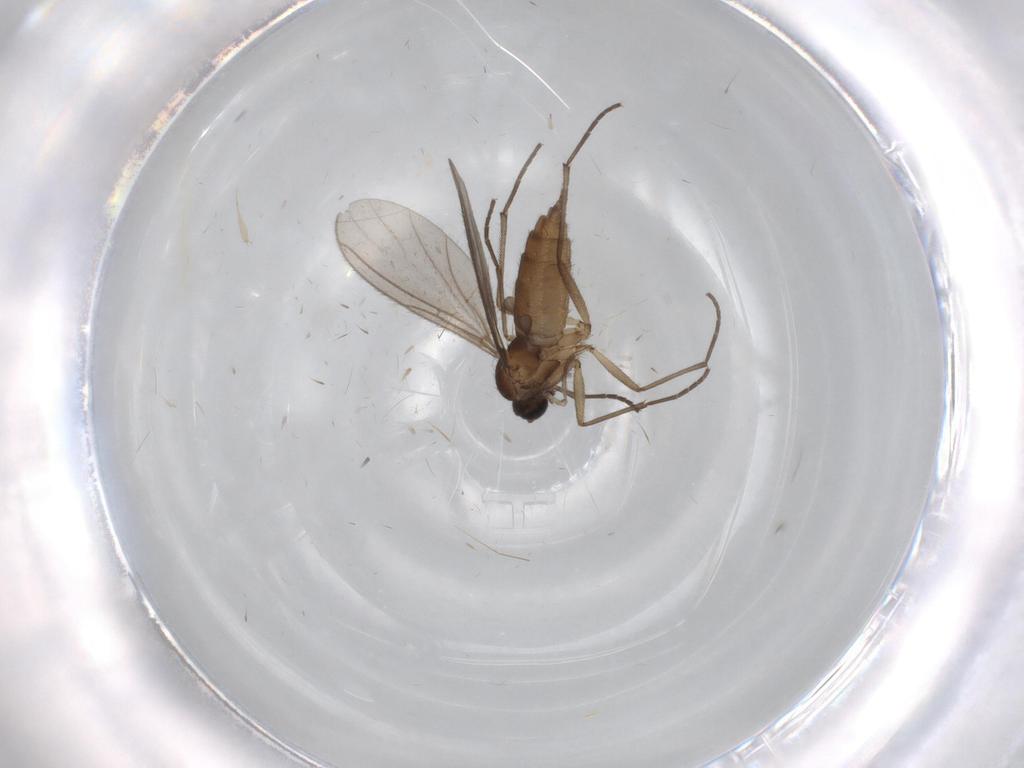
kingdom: Animalia
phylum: Arthropoda
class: Insecta
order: Diptera
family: Sciaridae
